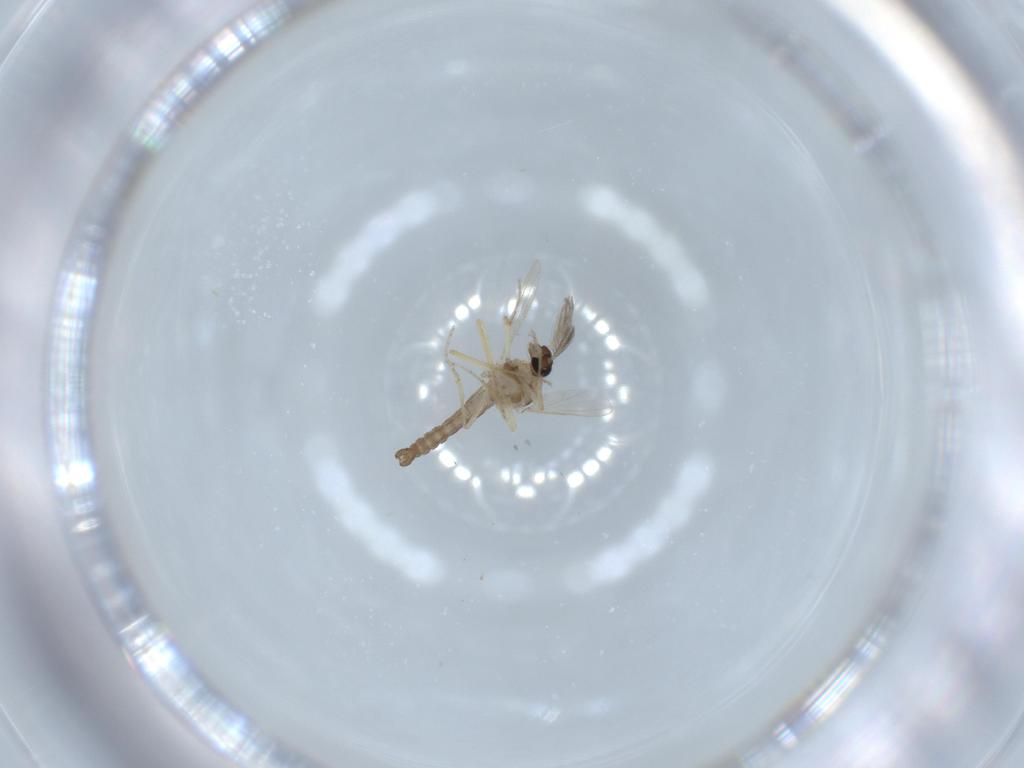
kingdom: Animalia
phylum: Arthropoda
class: Insecta
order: Diptera
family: Ceratopogonidae
